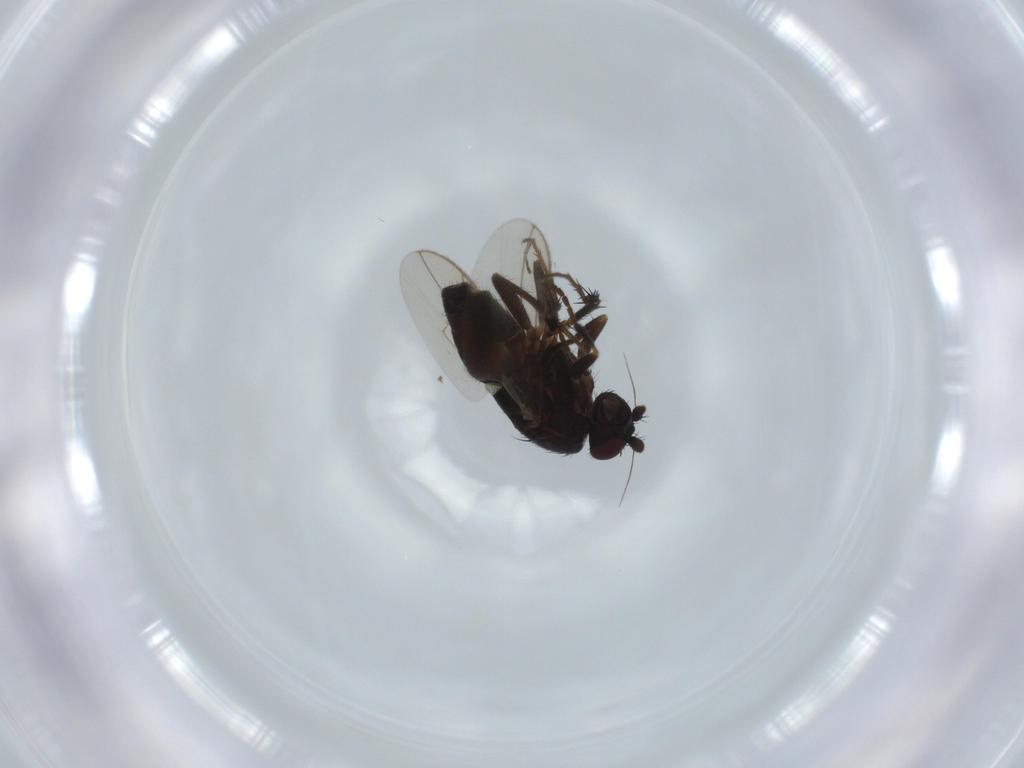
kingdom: Animalia
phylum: Arthropoda
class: Insecta
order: Diptera
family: Sphaeroceridae
